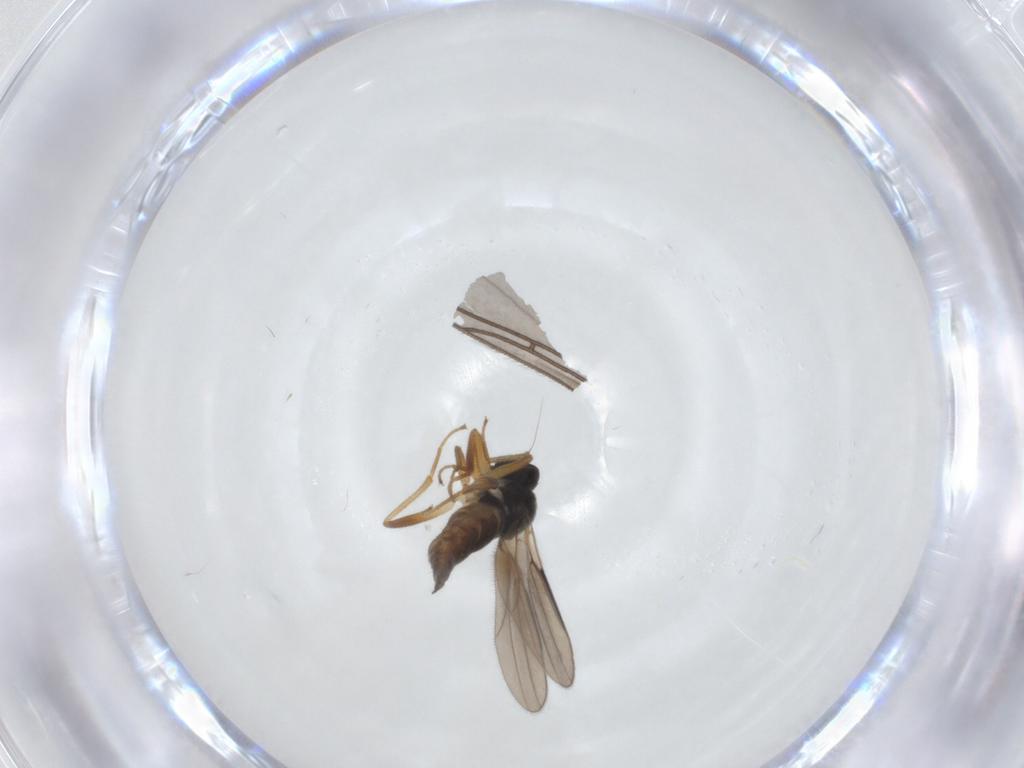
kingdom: Animalia
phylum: Arthropoda
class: Insecta
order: Diptera
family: Hybotidae
